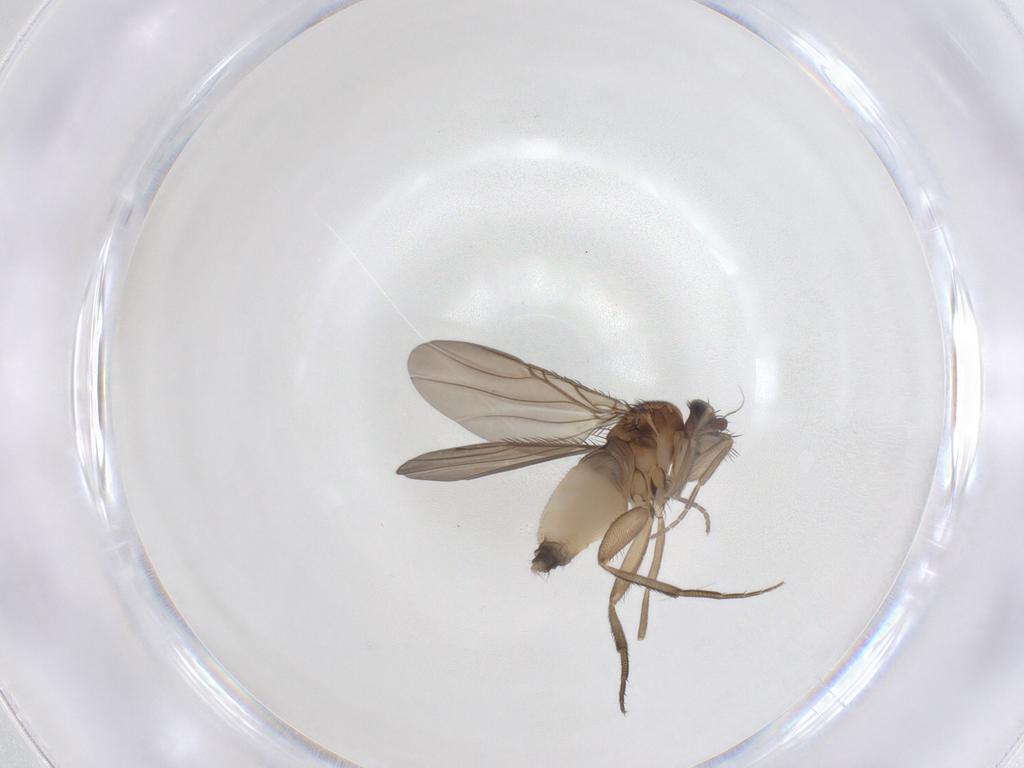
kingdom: Animalia
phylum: Arthropoda
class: Insecta
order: Diptera
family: Phoridae
